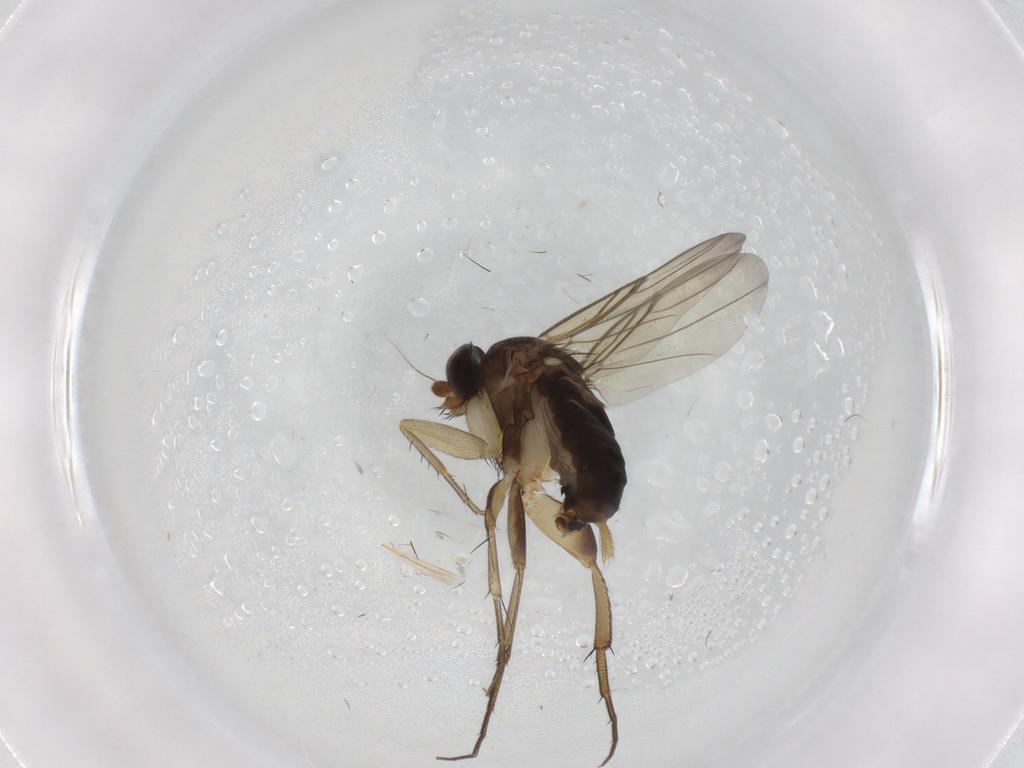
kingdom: Animalia
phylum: Arthropoda
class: Insecta
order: Diptera
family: Phoridae
